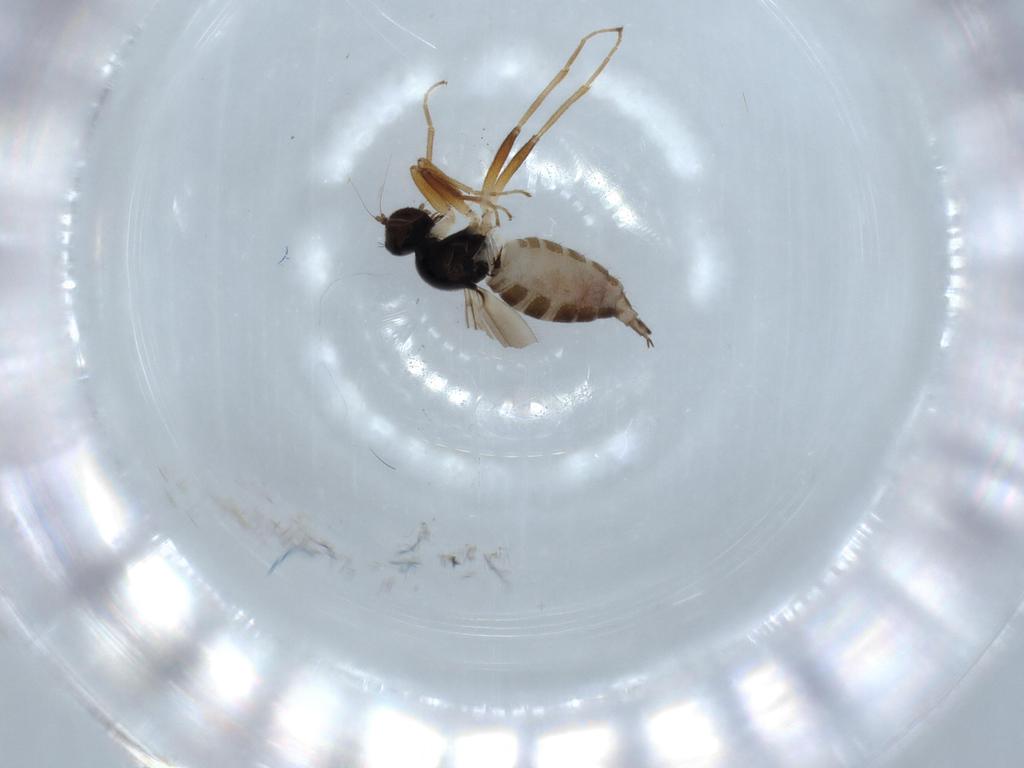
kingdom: Animalia
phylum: Arthropoda
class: Insecta
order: Diptera
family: Hybotidae
